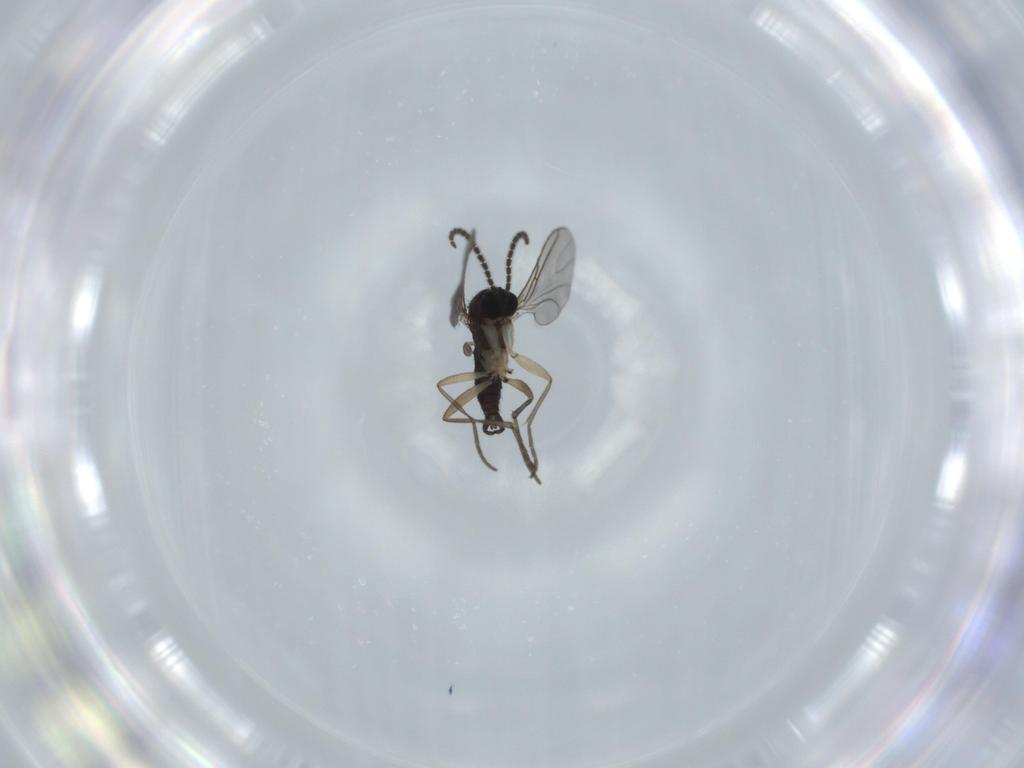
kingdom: Animalia
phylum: Arthropoda
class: Insecta
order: Diptera
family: Sciaridae
